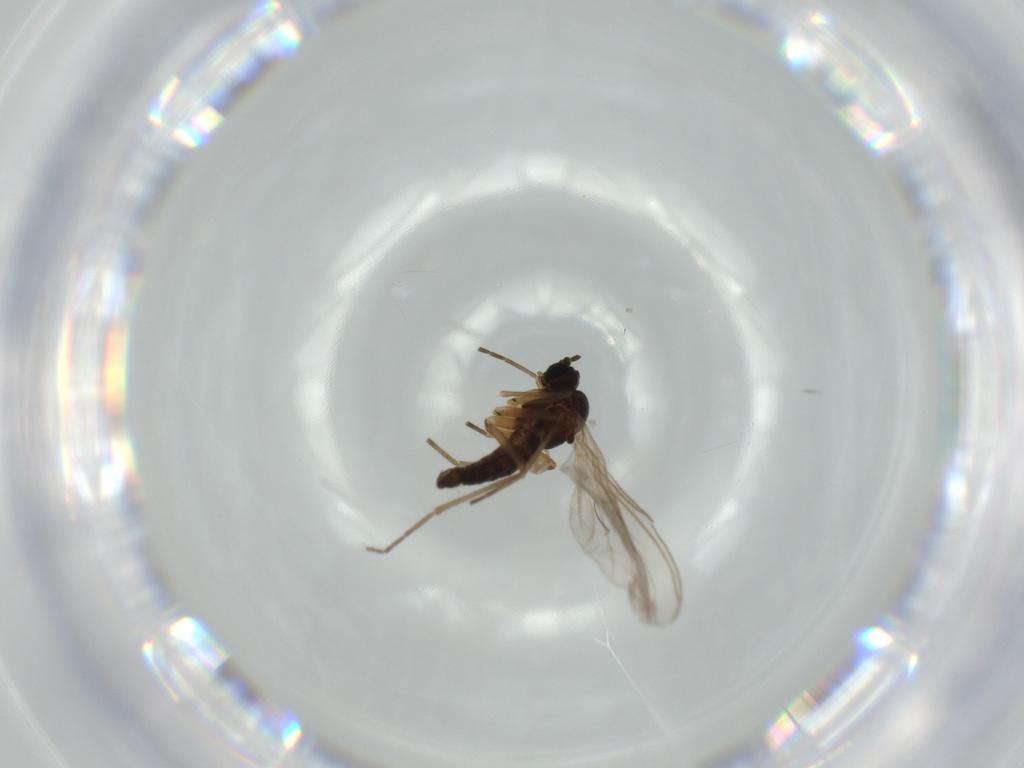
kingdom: Animalia
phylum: Arthropoda
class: Insecta
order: Diptera
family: Sciaridae
